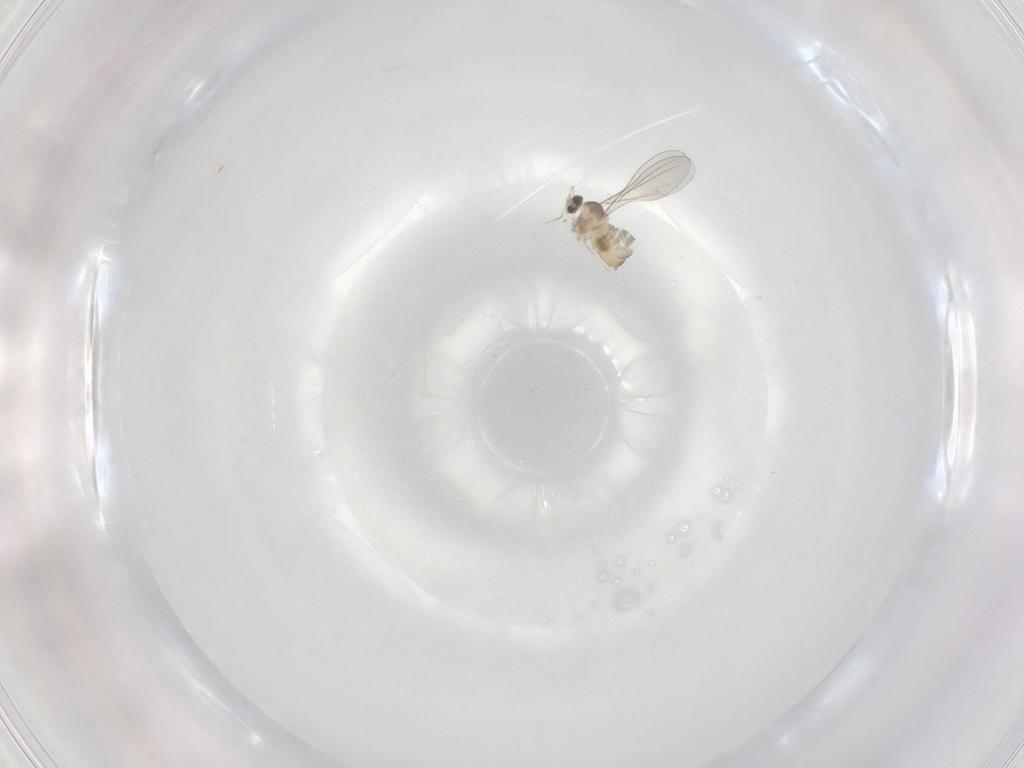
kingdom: Animalia
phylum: Arthropoda
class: Insecta
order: Diptera
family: Cecidomyiidae
